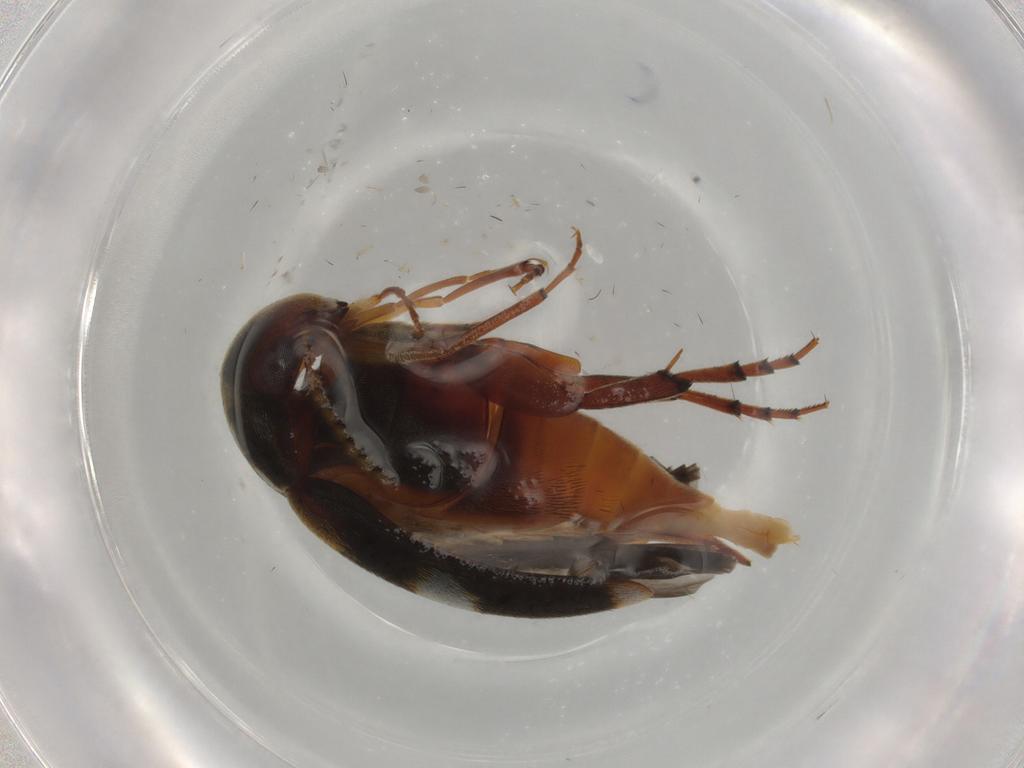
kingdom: Animalia
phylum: Arthropoda
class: Insecta
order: Coleoptera
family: Mordellidae
